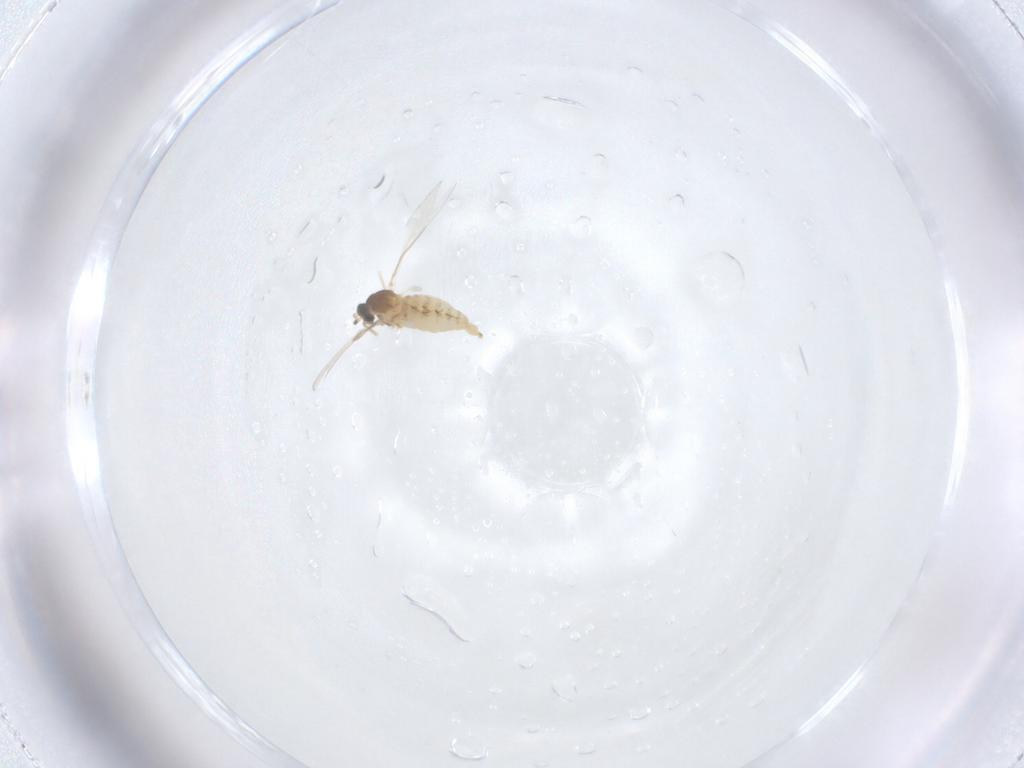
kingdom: Animalia
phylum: Arthropoda
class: Insecta
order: Diptera
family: Cecidomyiidae
